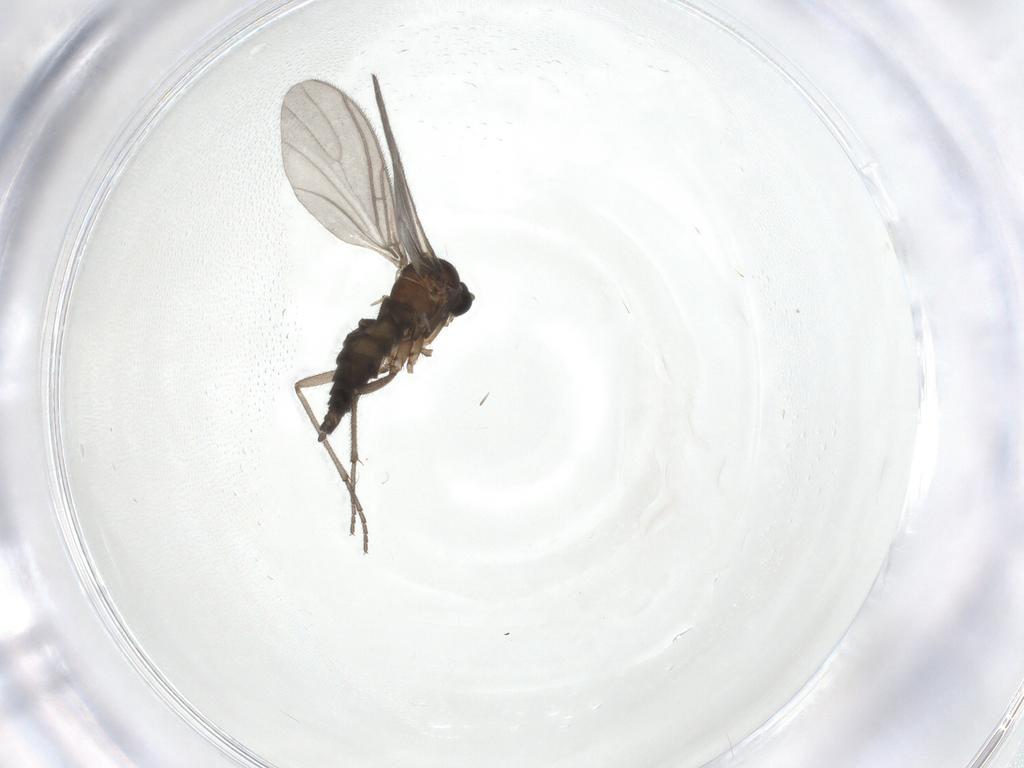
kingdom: Animalia
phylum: Arthropoda
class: Insecta
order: Diptera
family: Sciaridae
